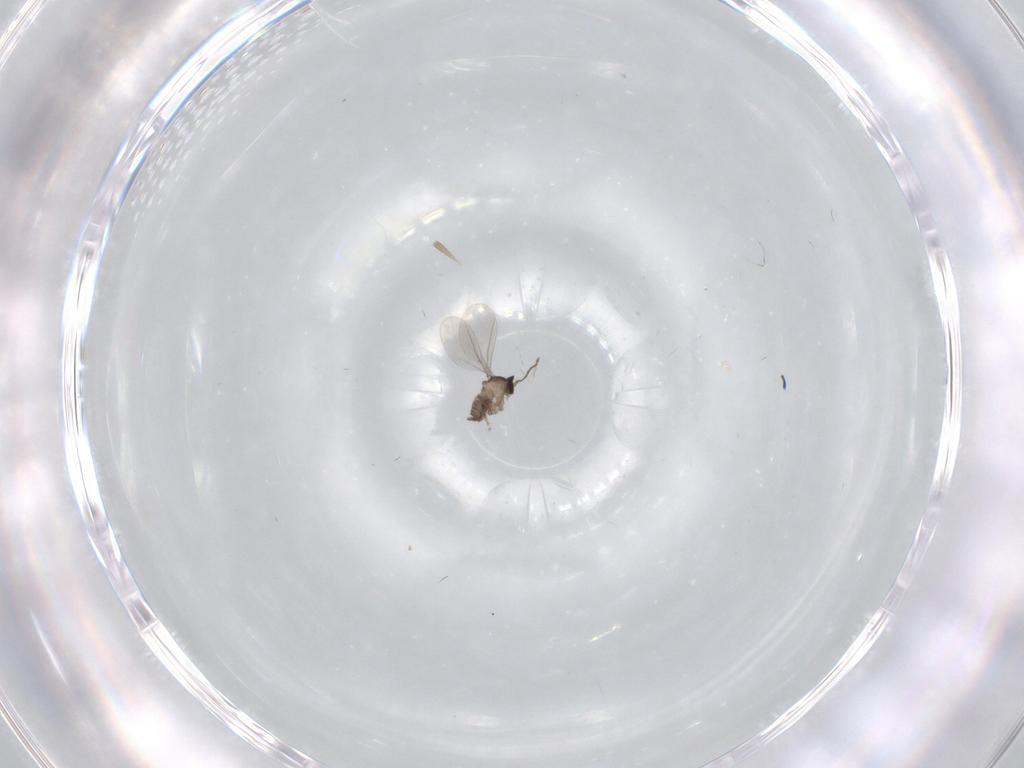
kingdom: Animalia
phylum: Arthropoda
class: Insecta
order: Diptera
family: Cecidomyiidae
